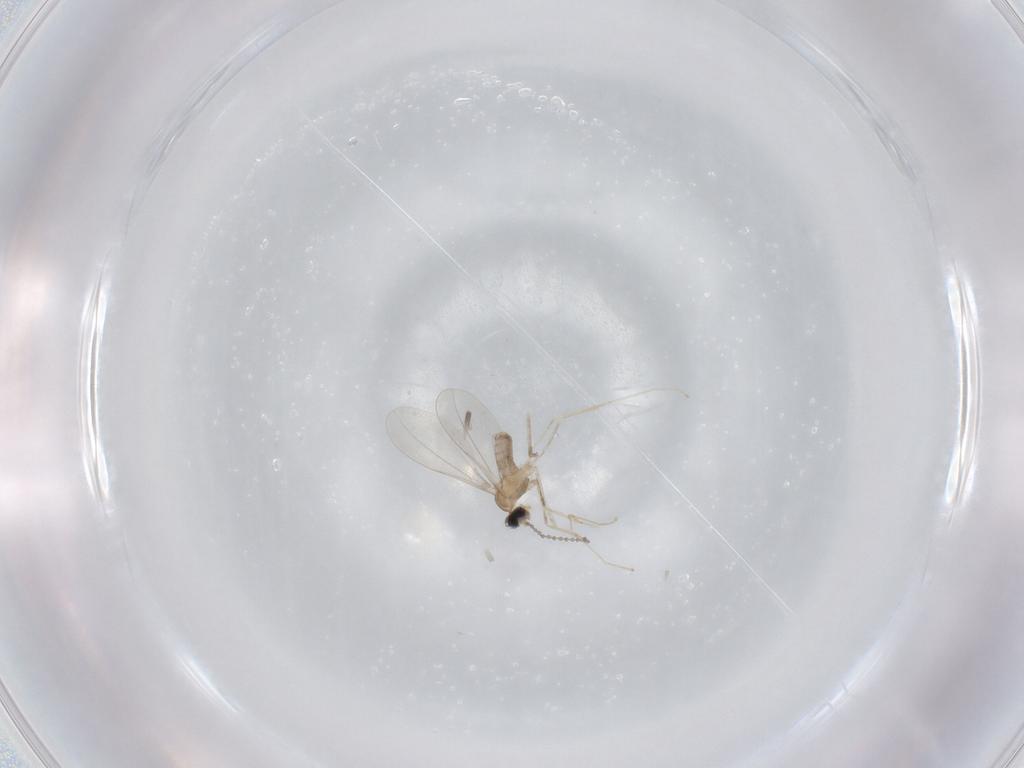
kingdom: Animalia
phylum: Arthropoda
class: Insecta
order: Diptera
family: Cecidomyiidae
